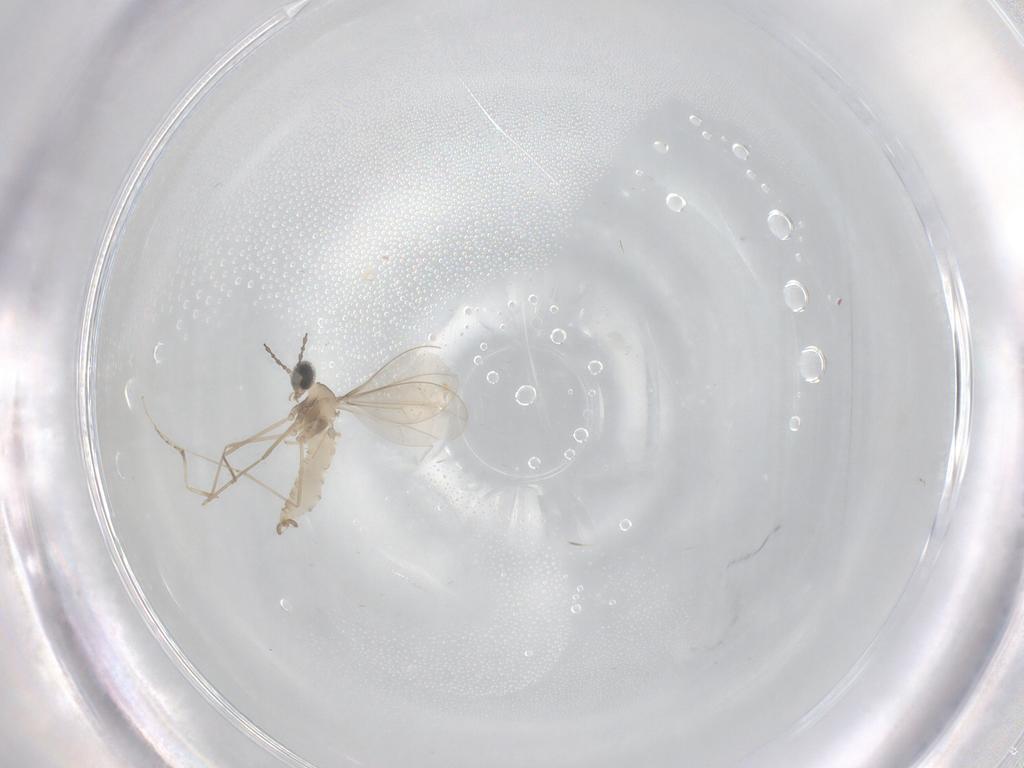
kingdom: Animalia
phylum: Arthropoda
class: Insecta
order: Diptera
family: Cecidomyiidae
